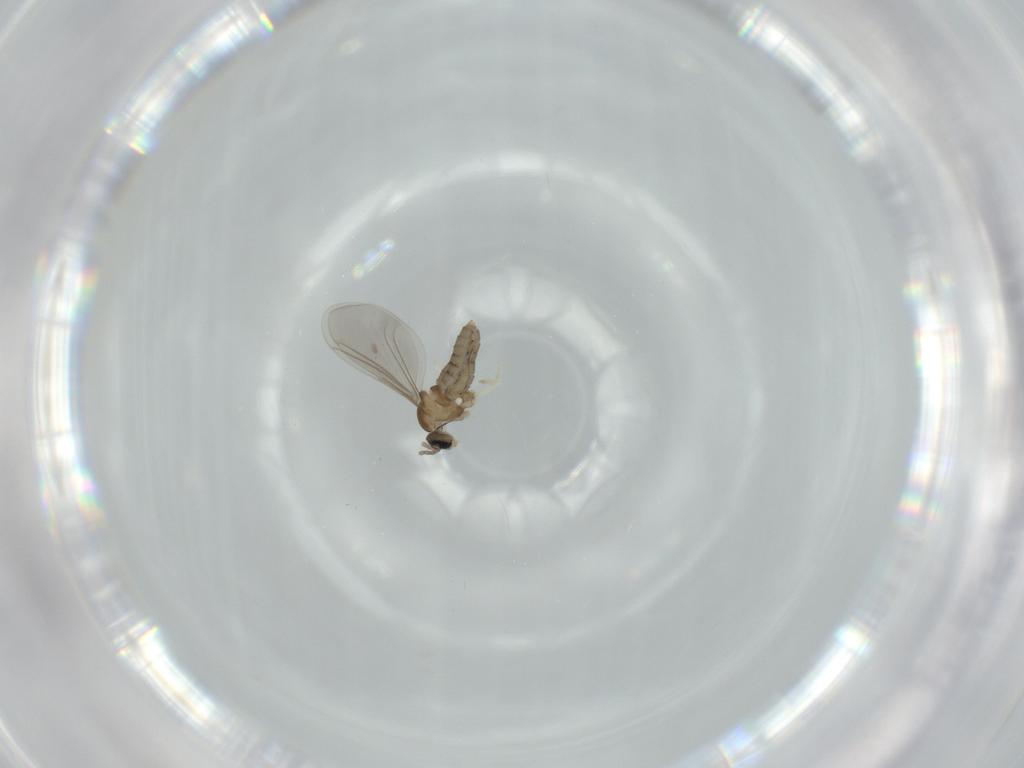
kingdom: Animalia
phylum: Arthropoda
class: Insecta
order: Diptera
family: Cecidomyiidae
